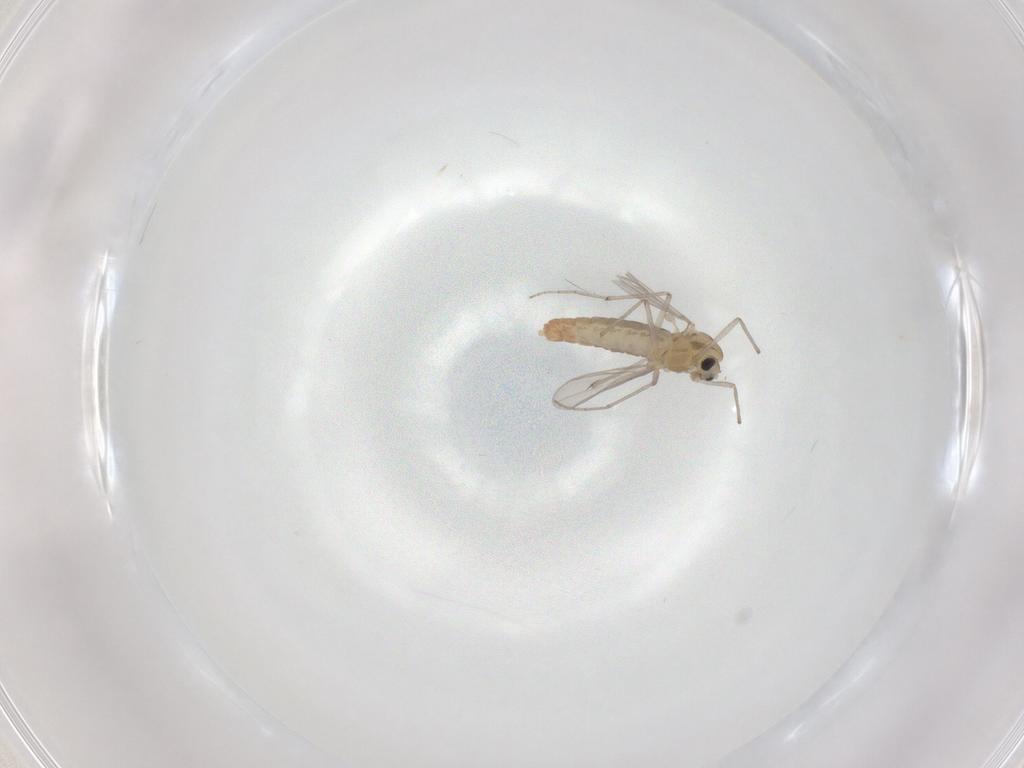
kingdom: Animalia
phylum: Arthropoda
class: Insecta
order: Diptera
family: Chironomidae
